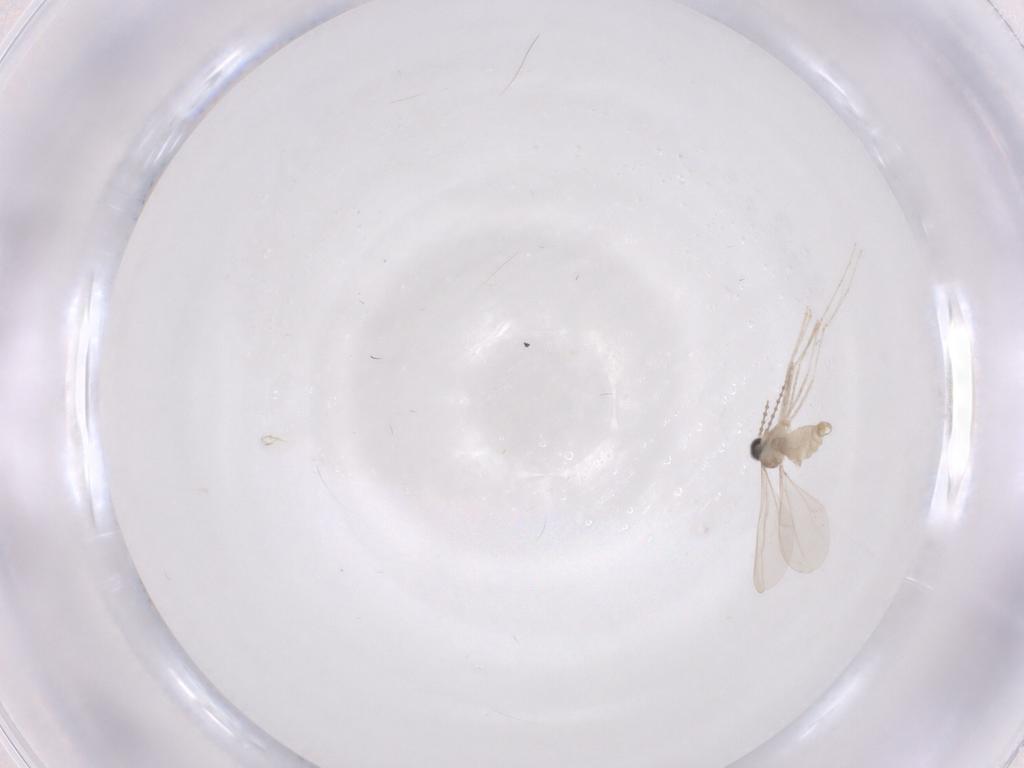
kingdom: Animalia
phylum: Arthropoda
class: Insecta
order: Diptera
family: Cecidomyiidae
